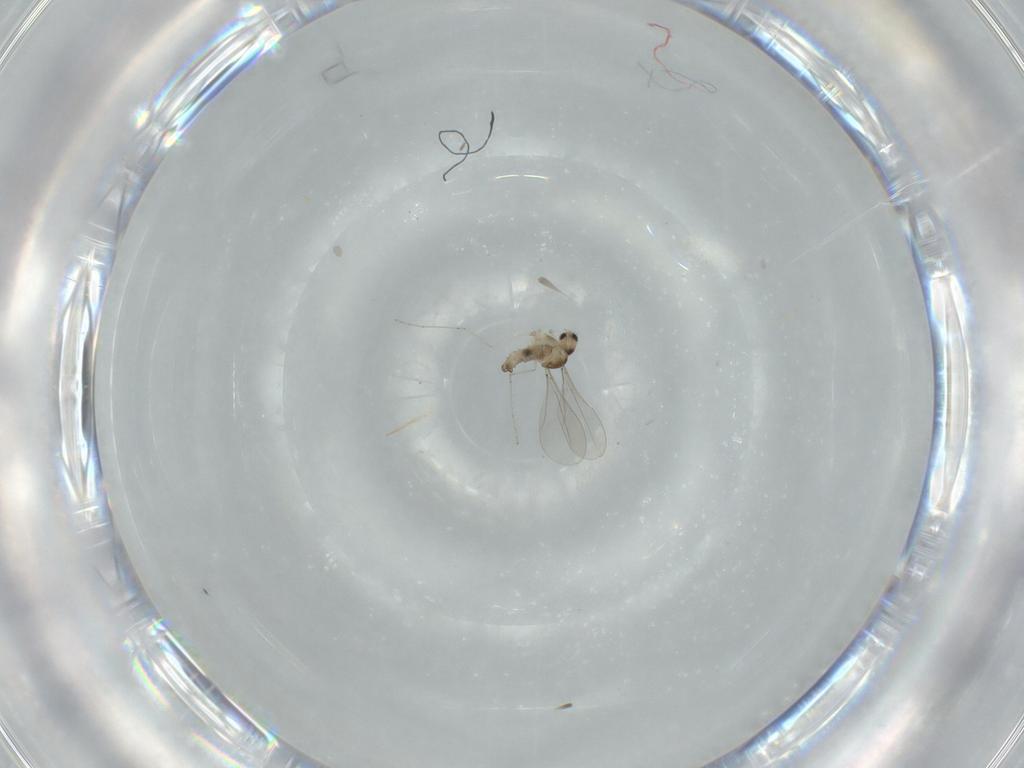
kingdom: Animalia
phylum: Arthropoda
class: Insecta
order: Diptera
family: Cecidomyiidae
